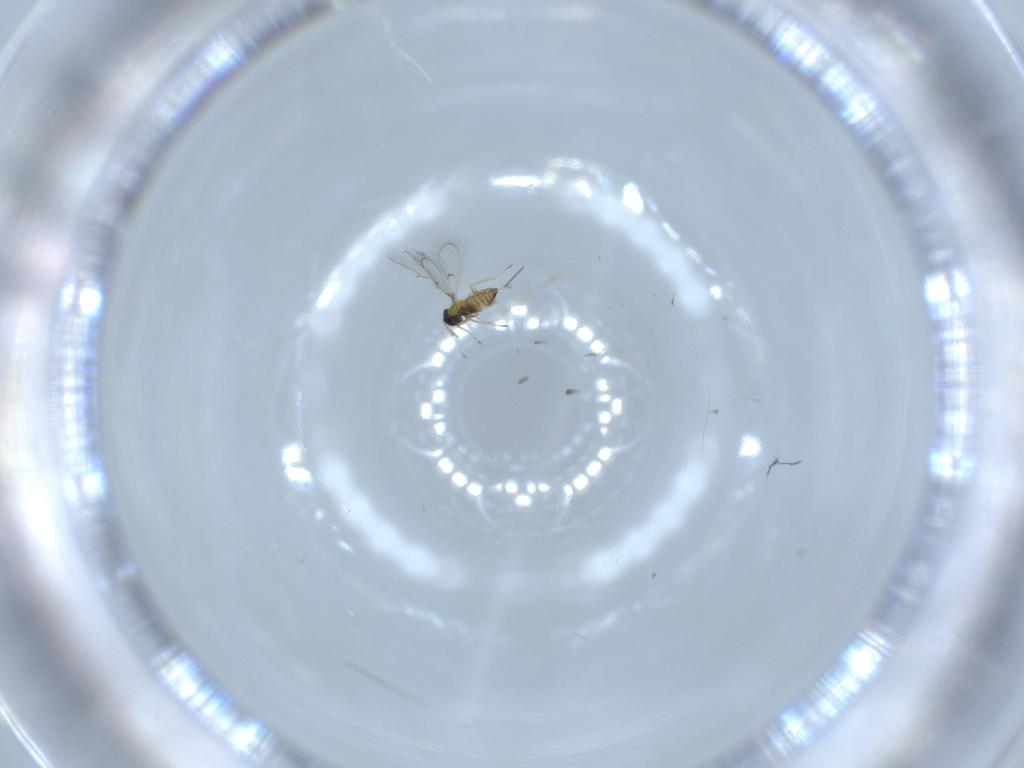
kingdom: Animalia
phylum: Arthropoda
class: Insecta
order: Hymenoptera
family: Trichogrammatidae
